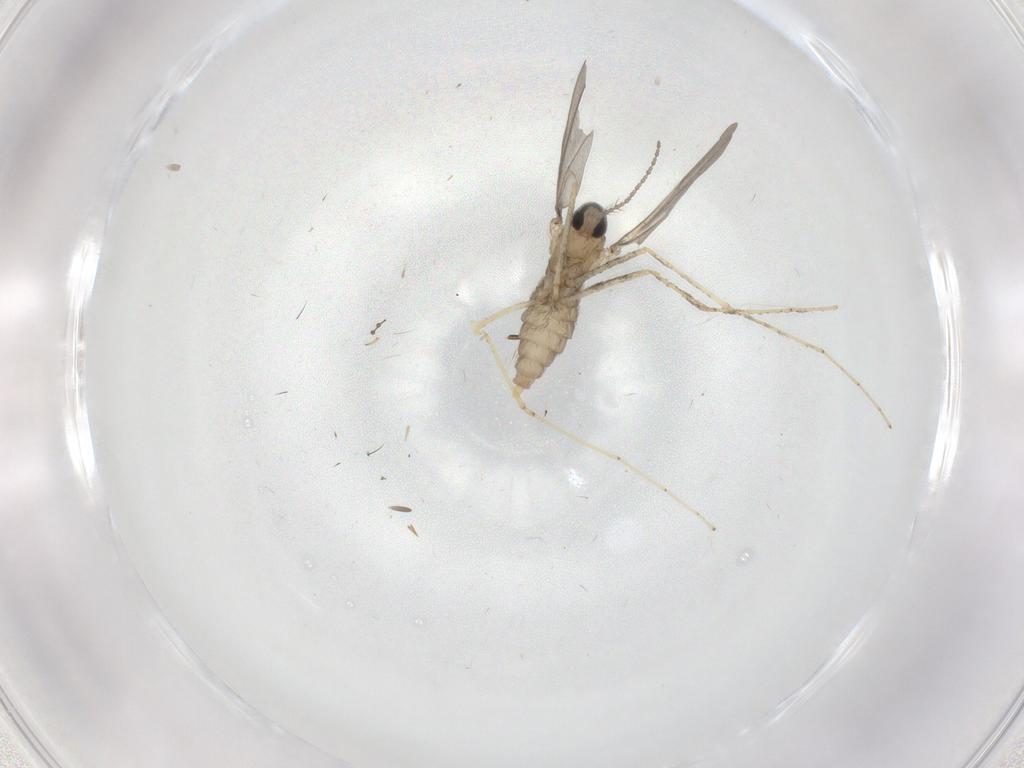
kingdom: Animalia
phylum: Arthropoda
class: Insecta
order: Diptera
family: Cecidomyiidae
